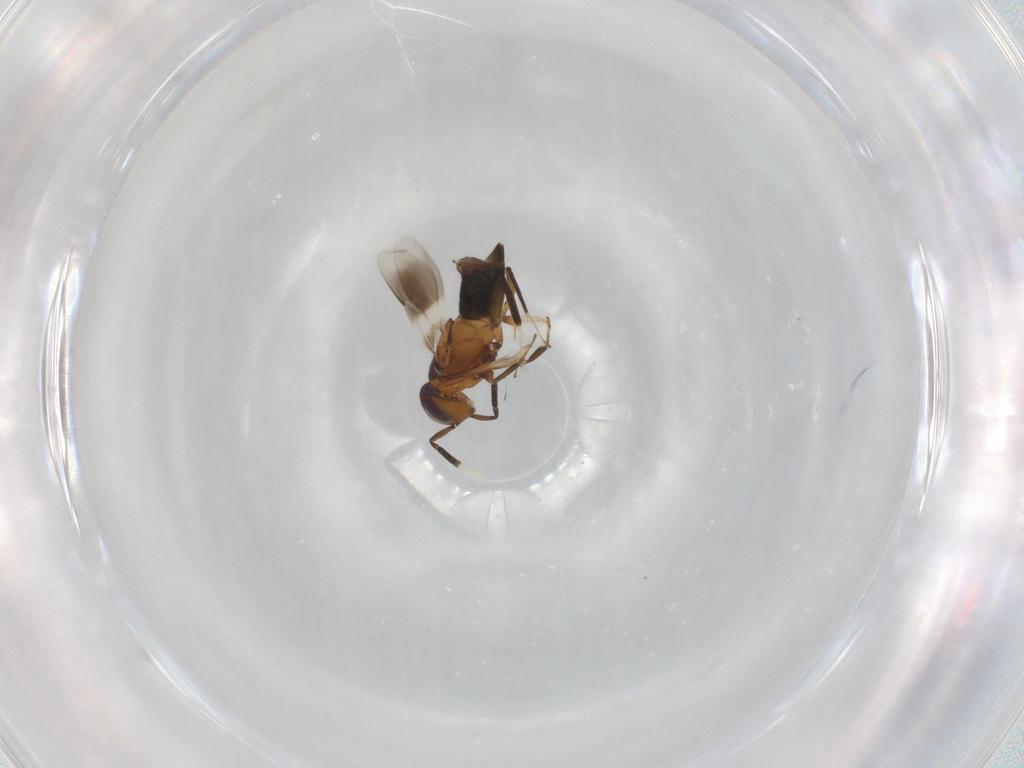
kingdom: Animalia
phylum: Arthropoda
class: Insecta
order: Hymenoptera
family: Encyrtidae
